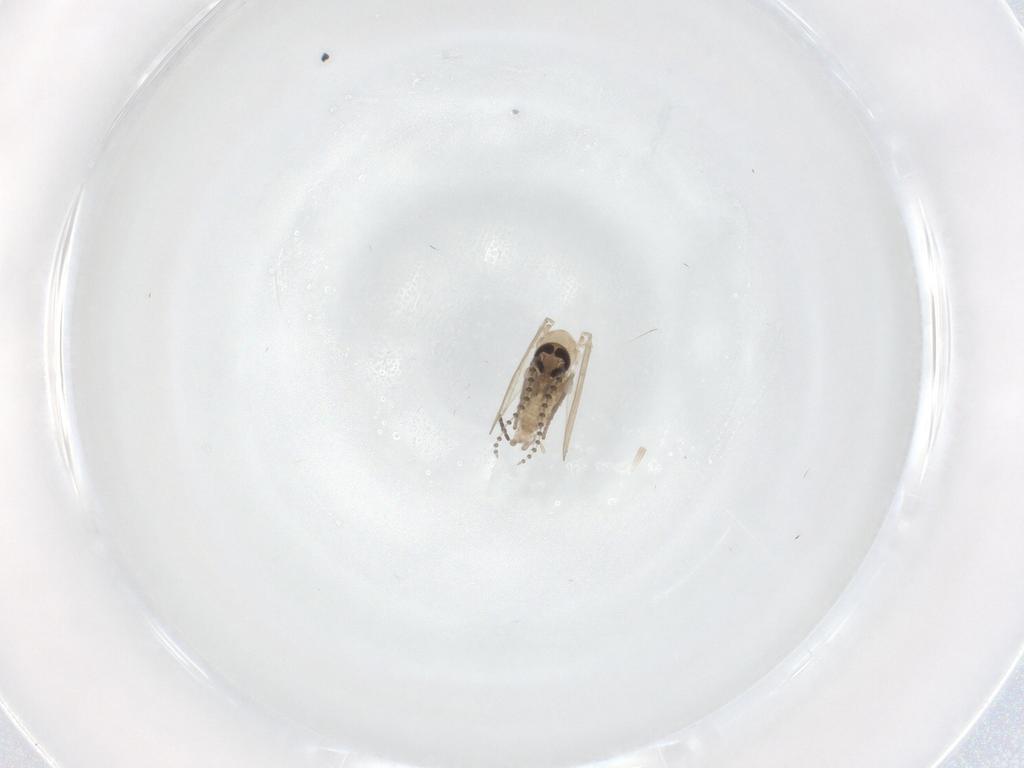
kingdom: Animalia
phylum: Arthropoda
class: Insecta
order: Diptera
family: Psychodidae
